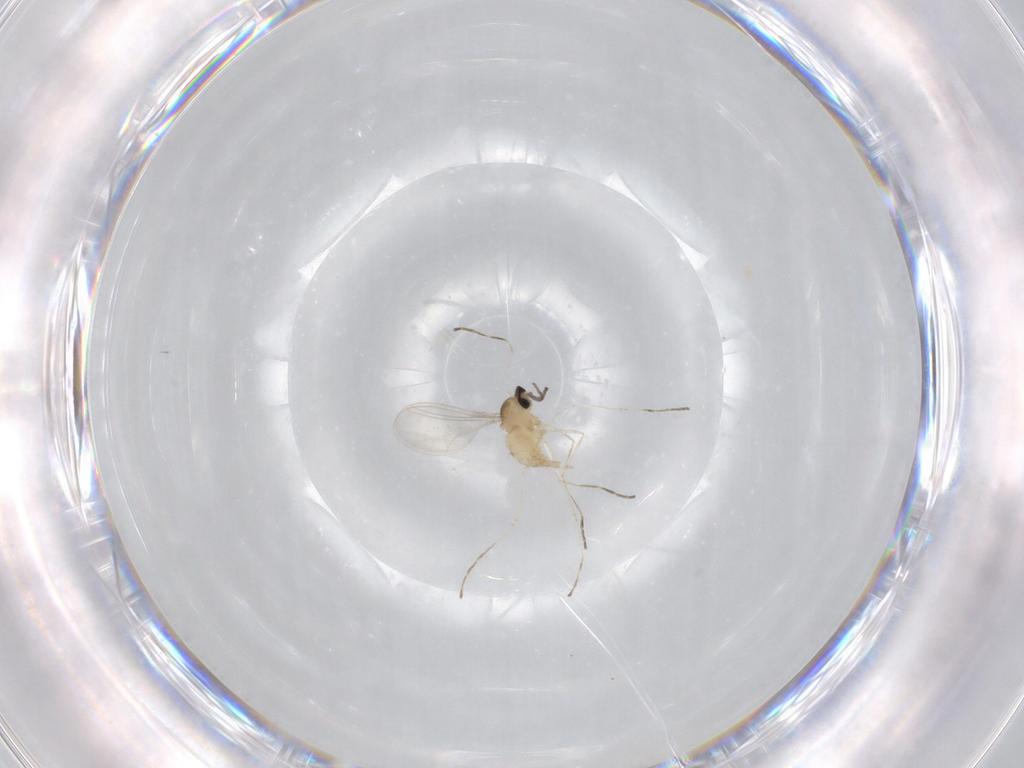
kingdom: Animalia
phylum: Arthropoda
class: Insecta
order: Diptera
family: Cecidomyiidae
